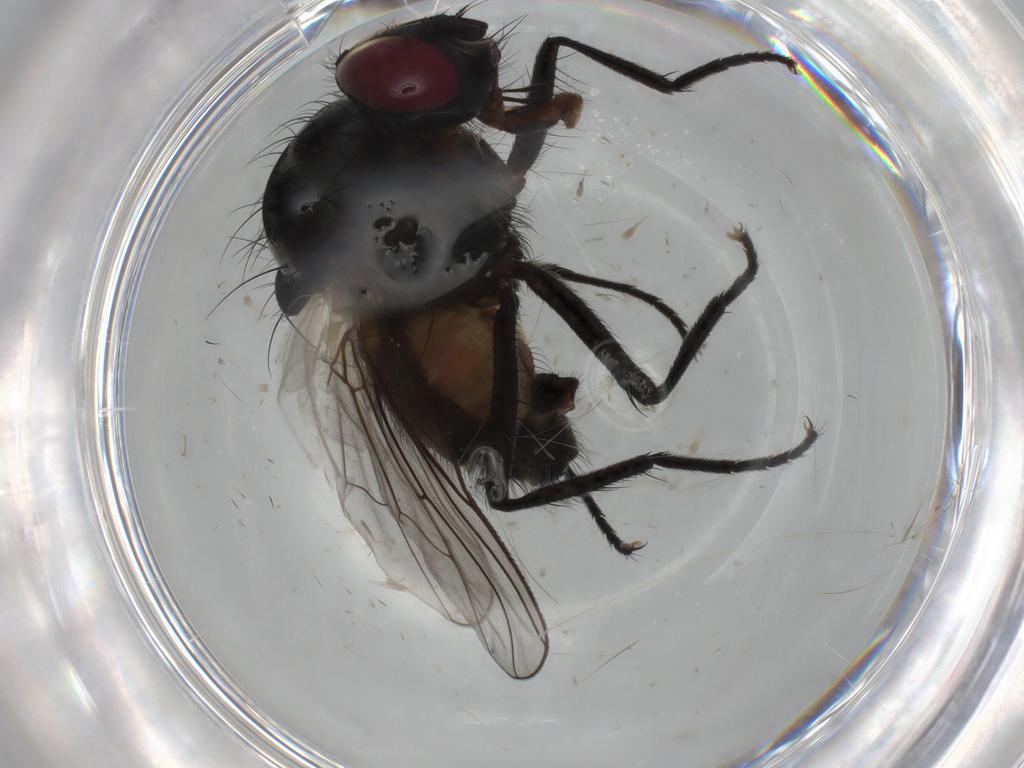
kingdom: Animalia
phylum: Arthropoda
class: Insecta
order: Diptera
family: Anthomyiidae
